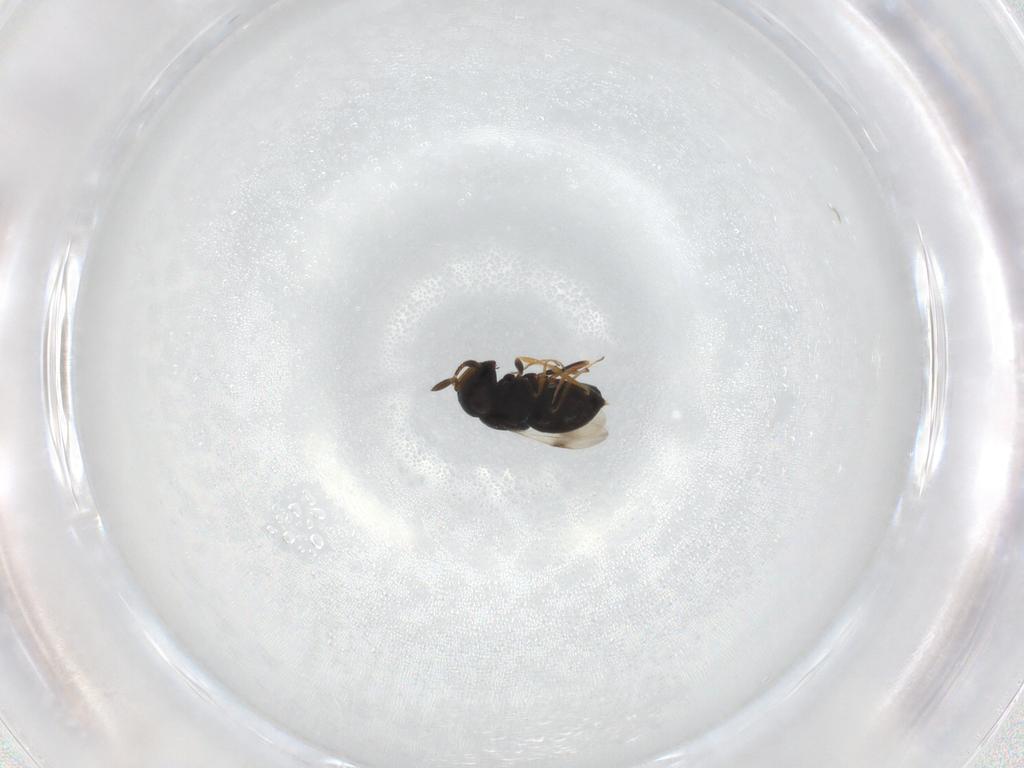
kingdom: Animalia
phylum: Arthropoda
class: Insecta
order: Hymenoptera
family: Scelionidae
